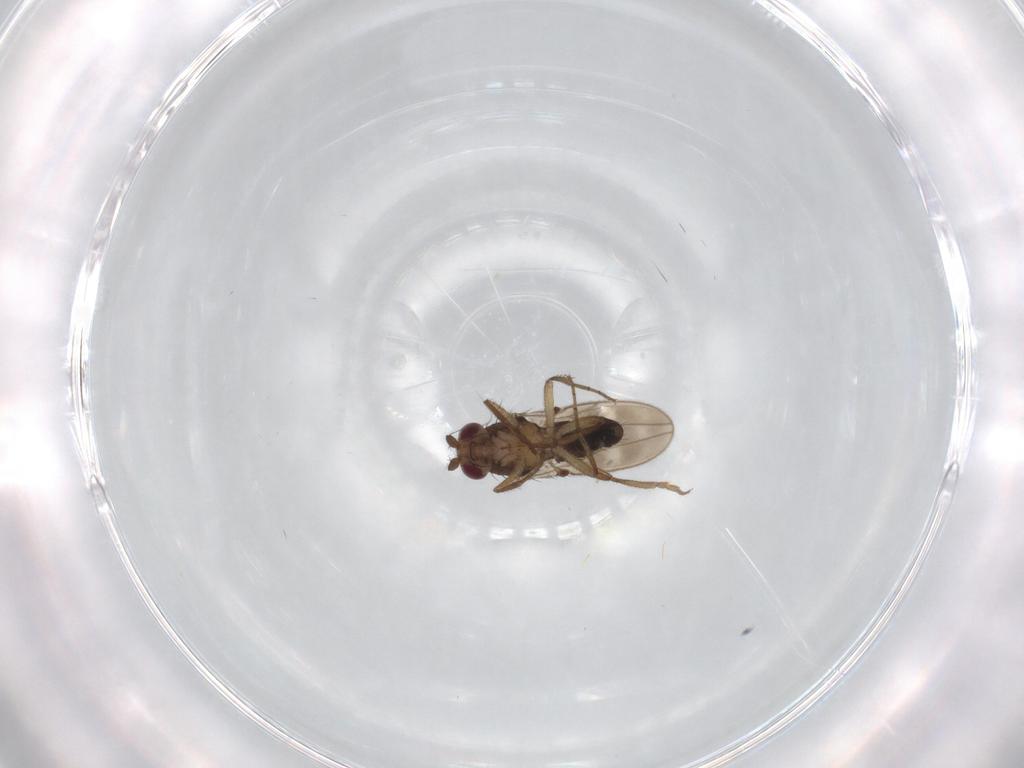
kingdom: Animalia
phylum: Arthropoda
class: Insecta
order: Diptera
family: Sphaeroceridae
